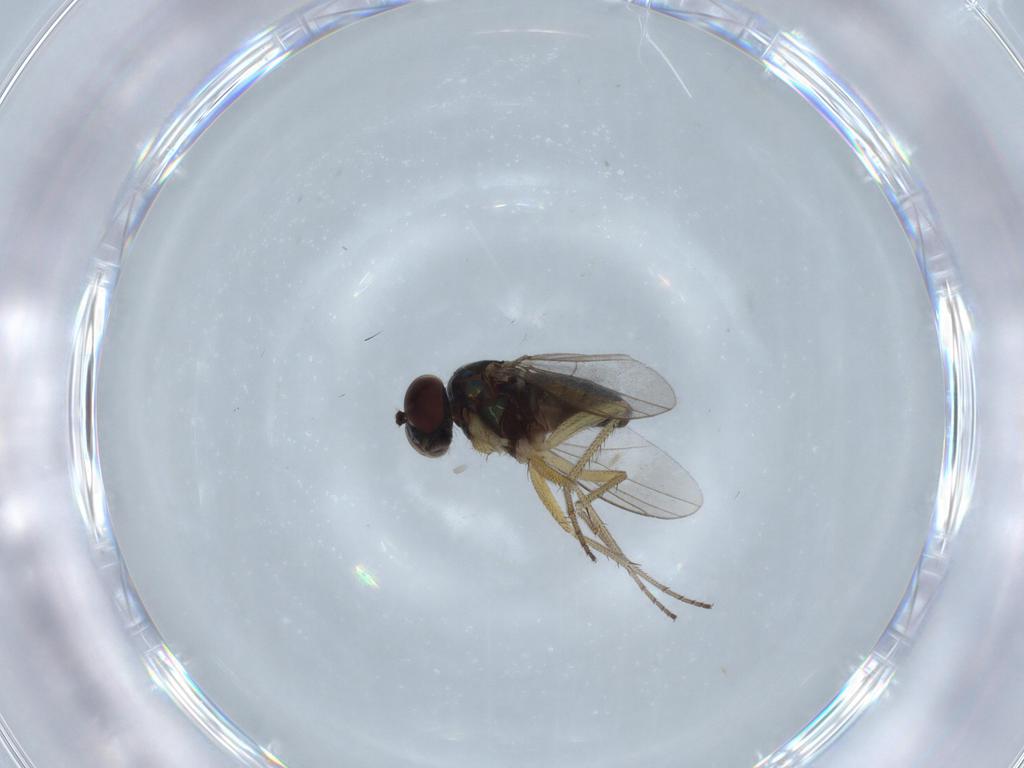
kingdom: Animalia
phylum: Arthropoda
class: Insecta
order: Diptera
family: Dolichopodidae
